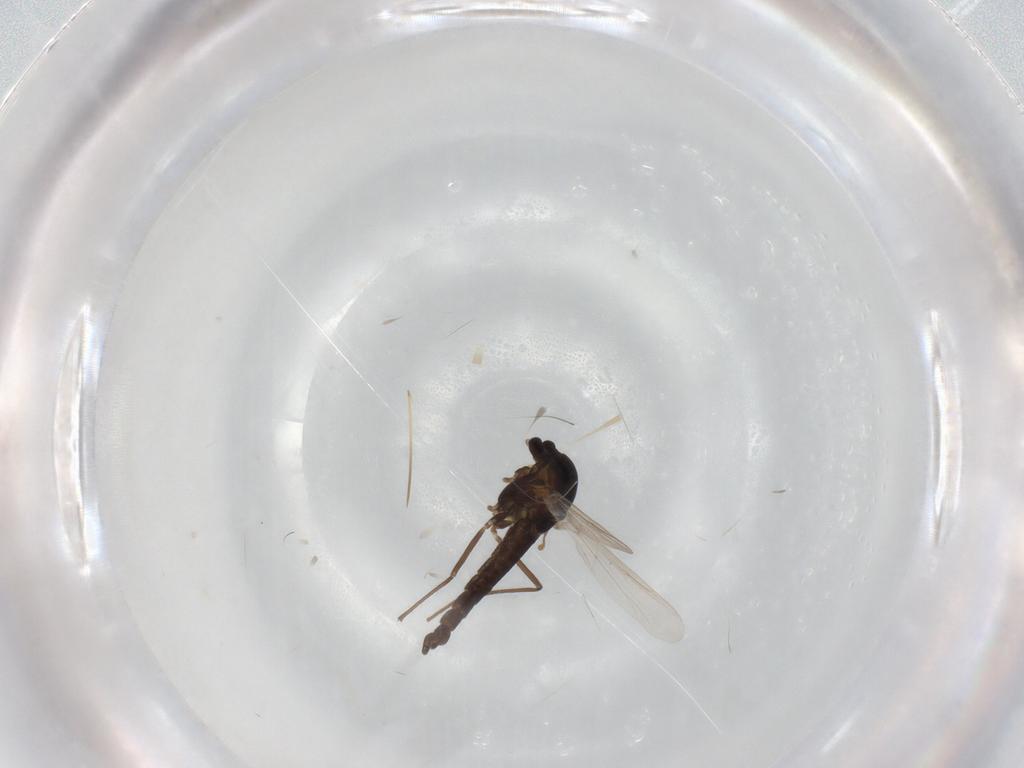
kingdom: Animalia
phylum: Arthropoda
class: Insecta
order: Diptera
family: Chironomidae
